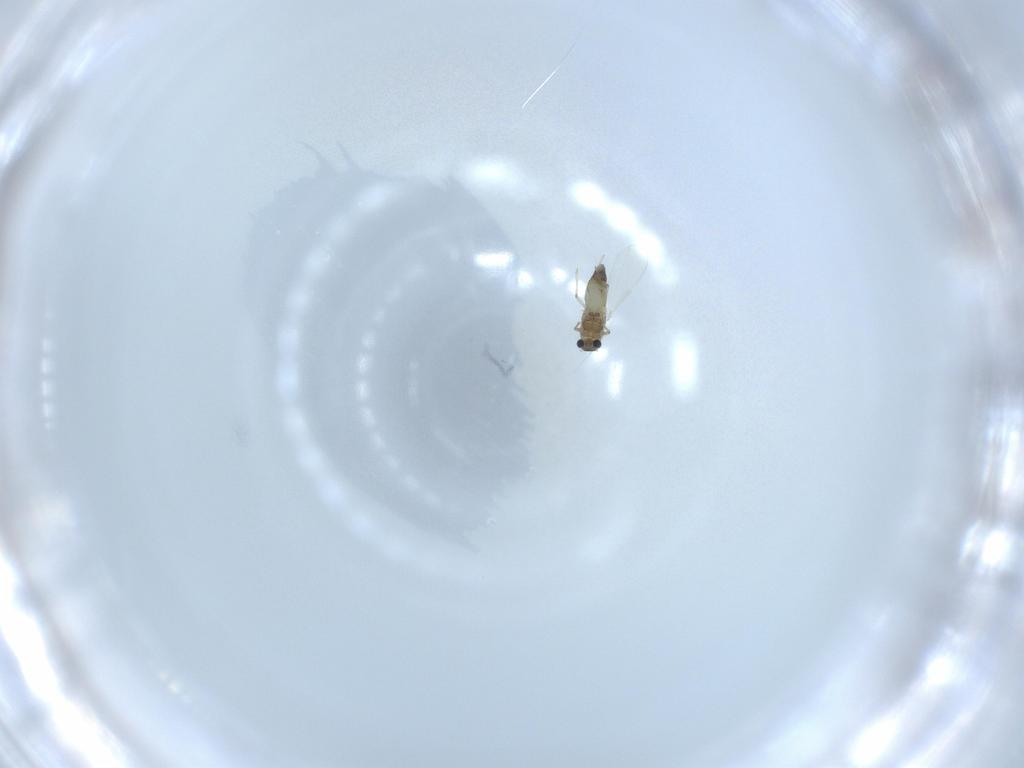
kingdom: Animalia
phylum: Arthropoda
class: Insecta
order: Diptera
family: Chironomidae
